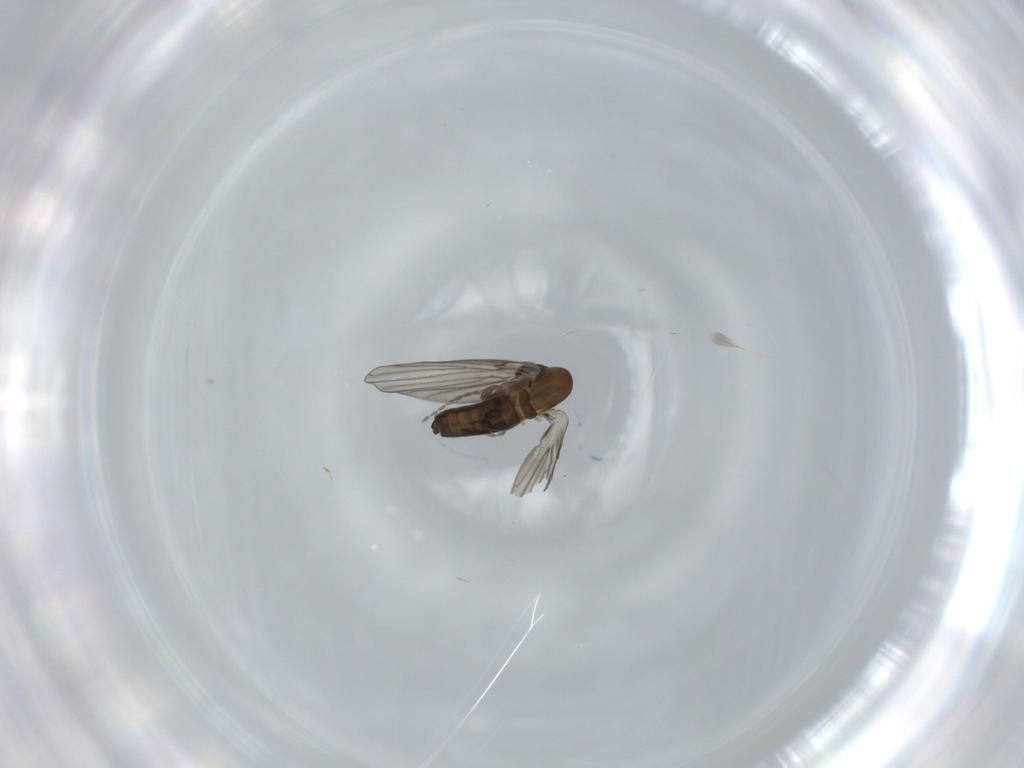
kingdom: Animalia
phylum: Arthropoda
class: Insecta
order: Diptera
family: Psychodidae
